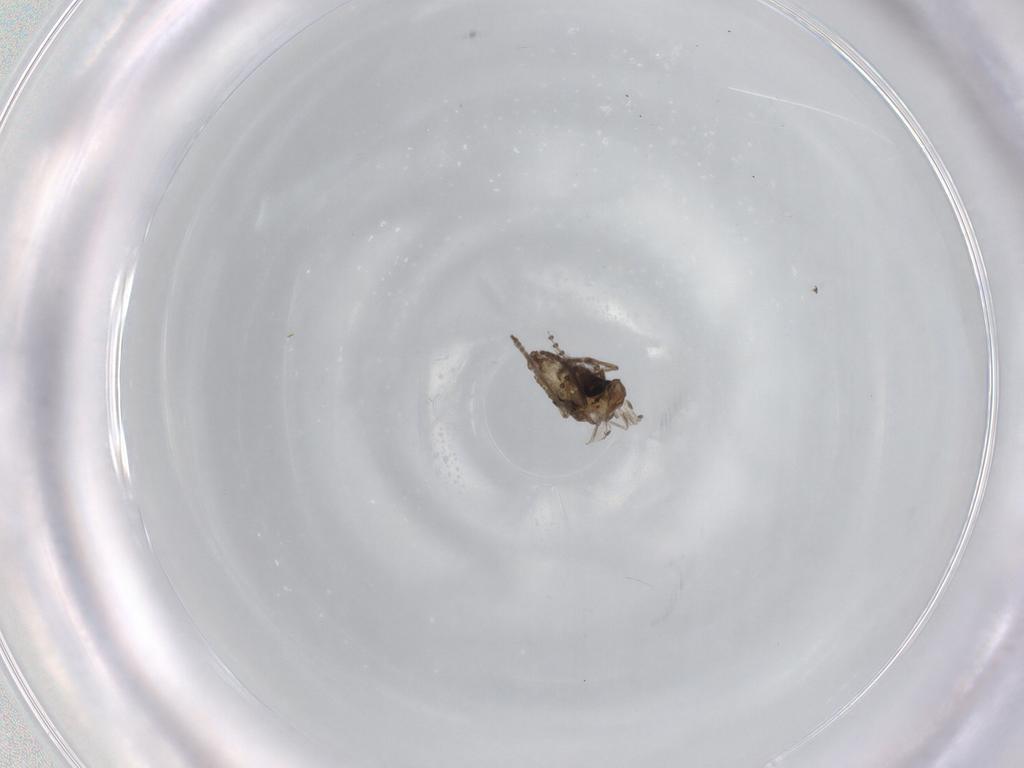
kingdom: Animalia
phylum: Arthropoda
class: Insecta
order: Diptera
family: Psychodidae
